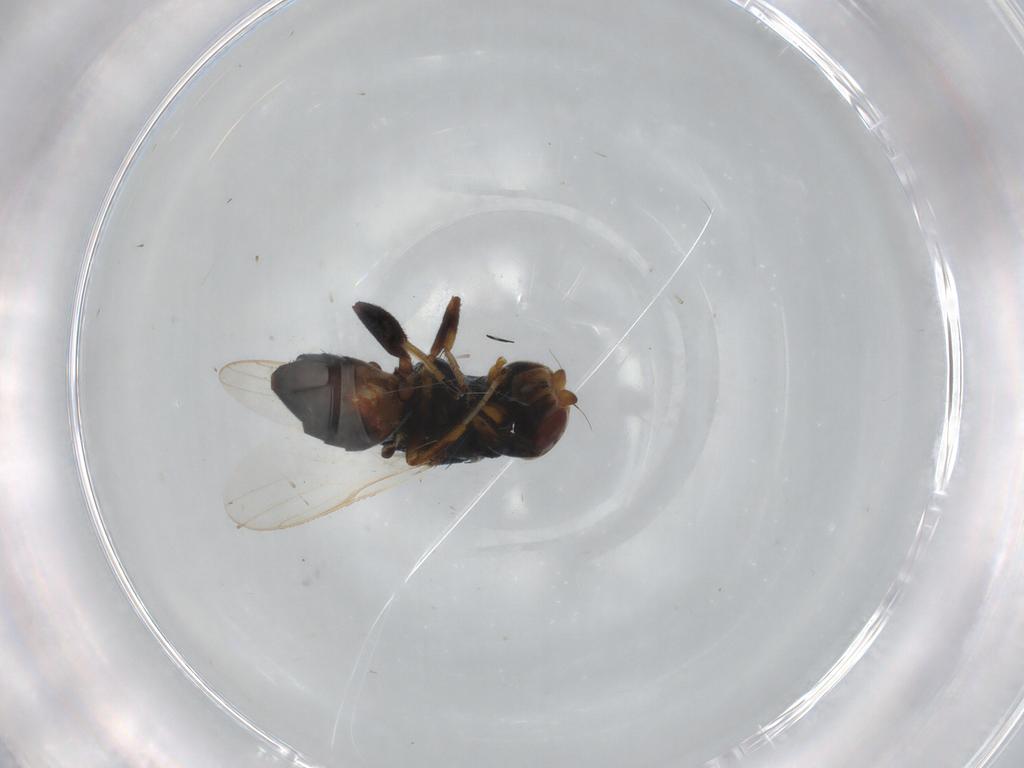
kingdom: Animalia
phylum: Arthropoda
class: Insecta
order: Diptera
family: Chloropidae
